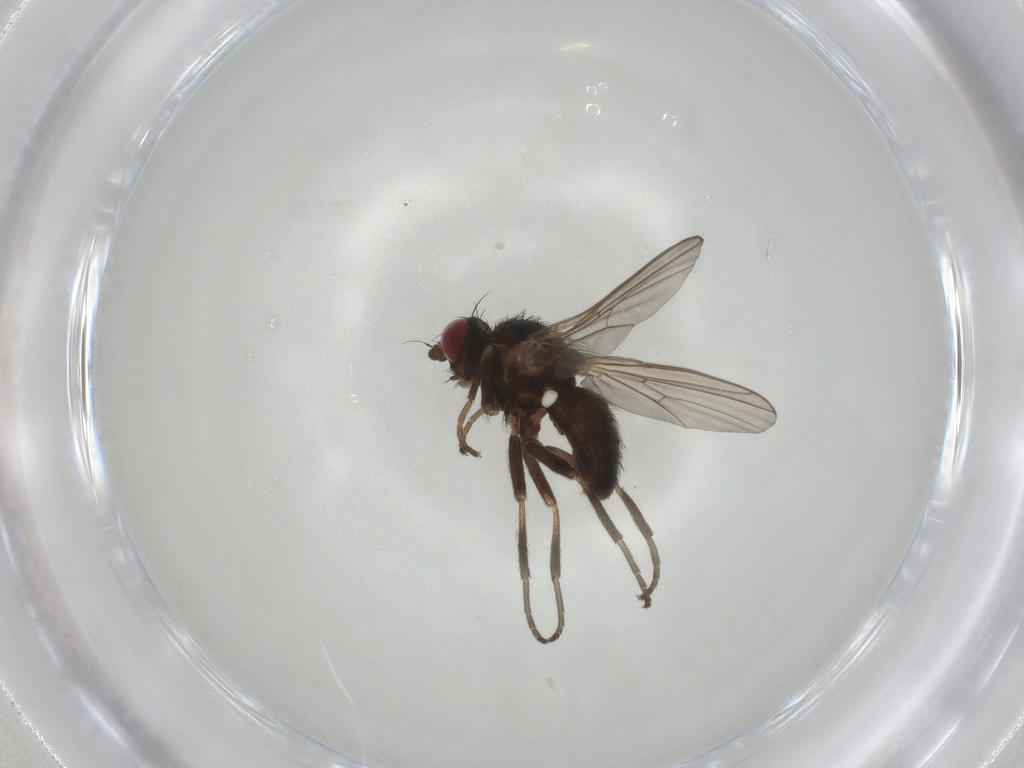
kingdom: Animalia
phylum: Arthropoda
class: Insecta
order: Diptera
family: Agromyzidae
